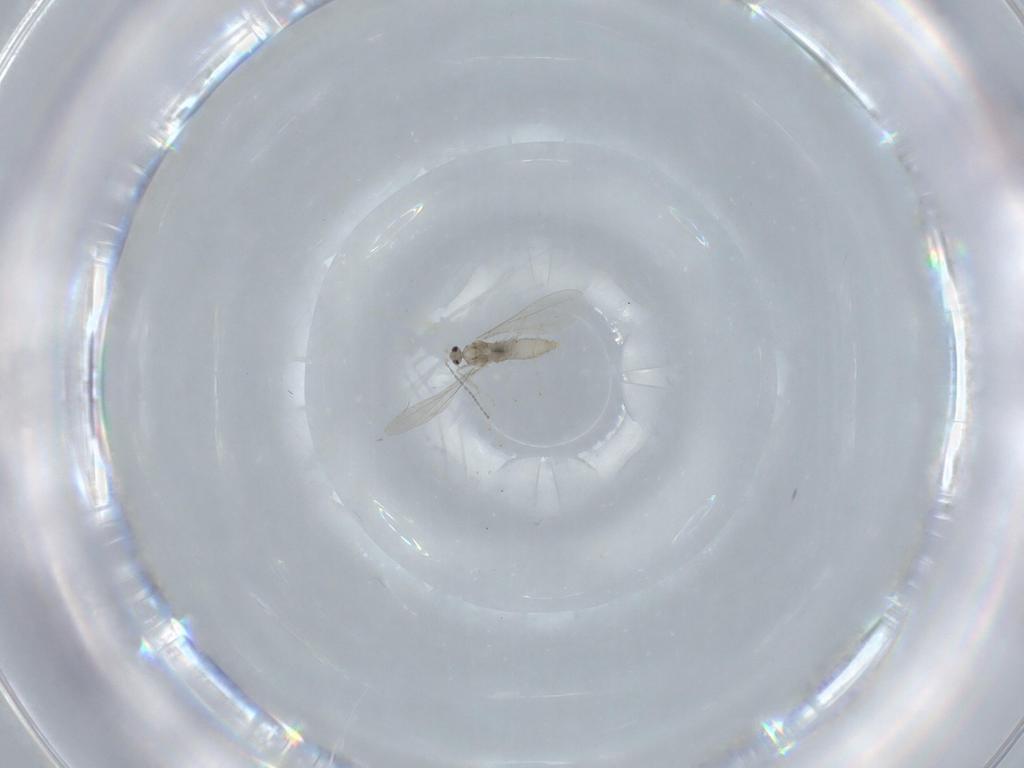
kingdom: Animalia
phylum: Arthropoda
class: Insecta
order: Diptera
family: Cecidomyiidae
